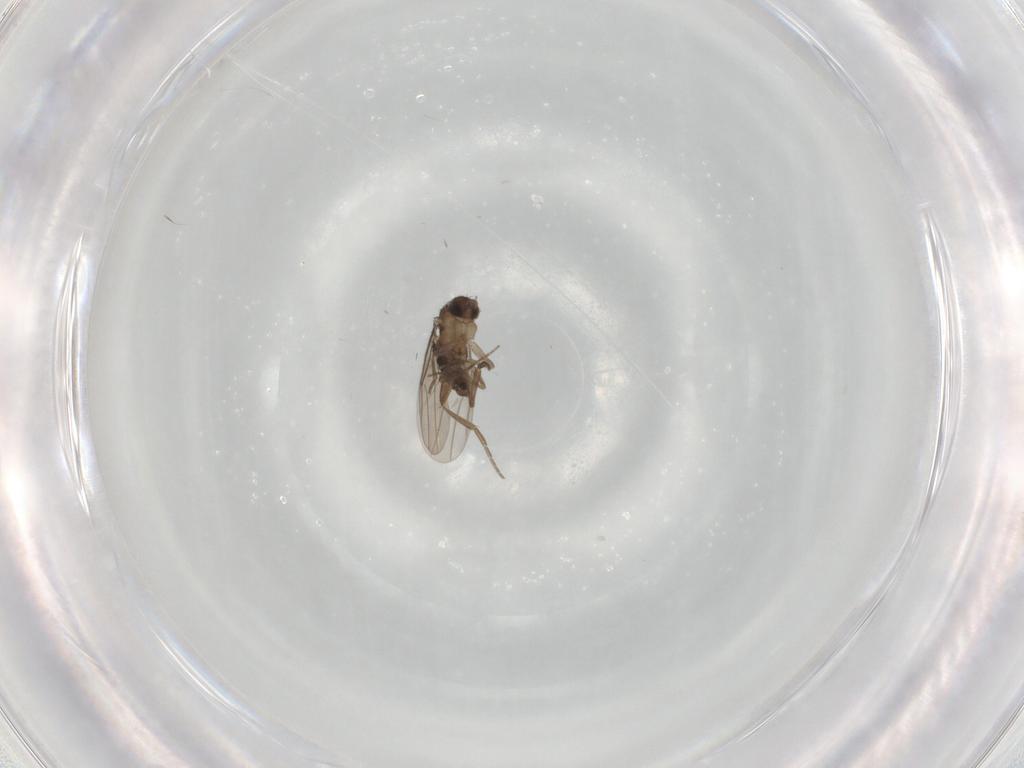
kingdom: Animalia
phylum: Arthropoda
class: Insecta
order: Diptera
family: Phoridae
